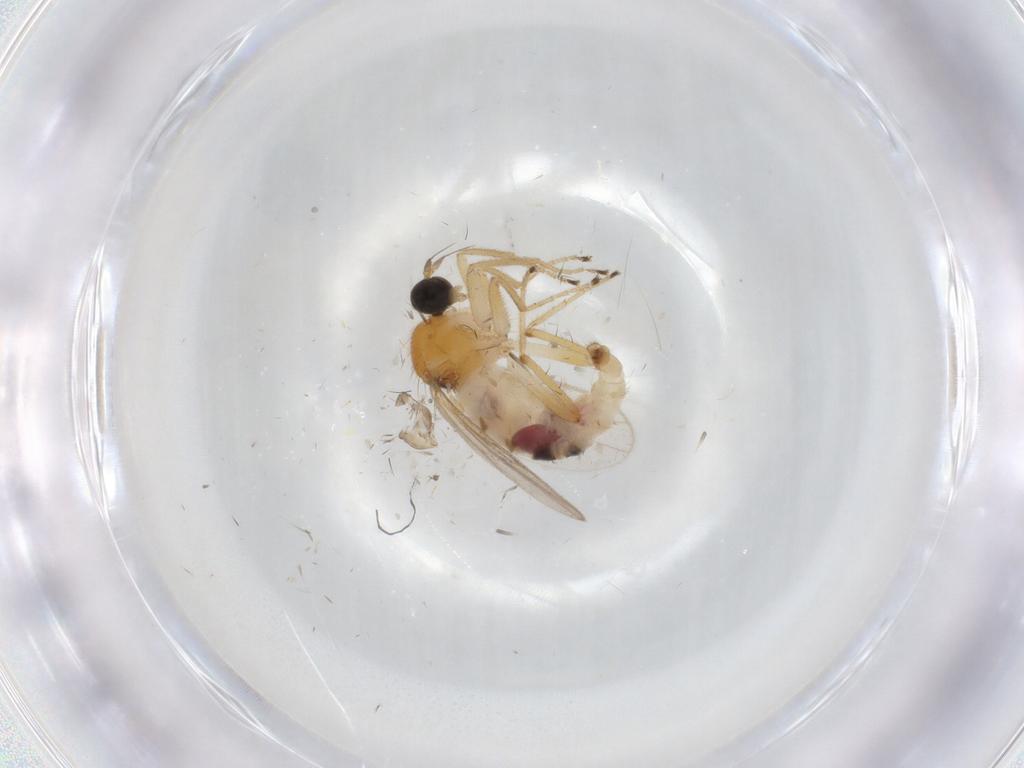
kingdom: Animalia
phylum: Arthropoda
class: Insecta
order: Diptera
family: Hybotidae
